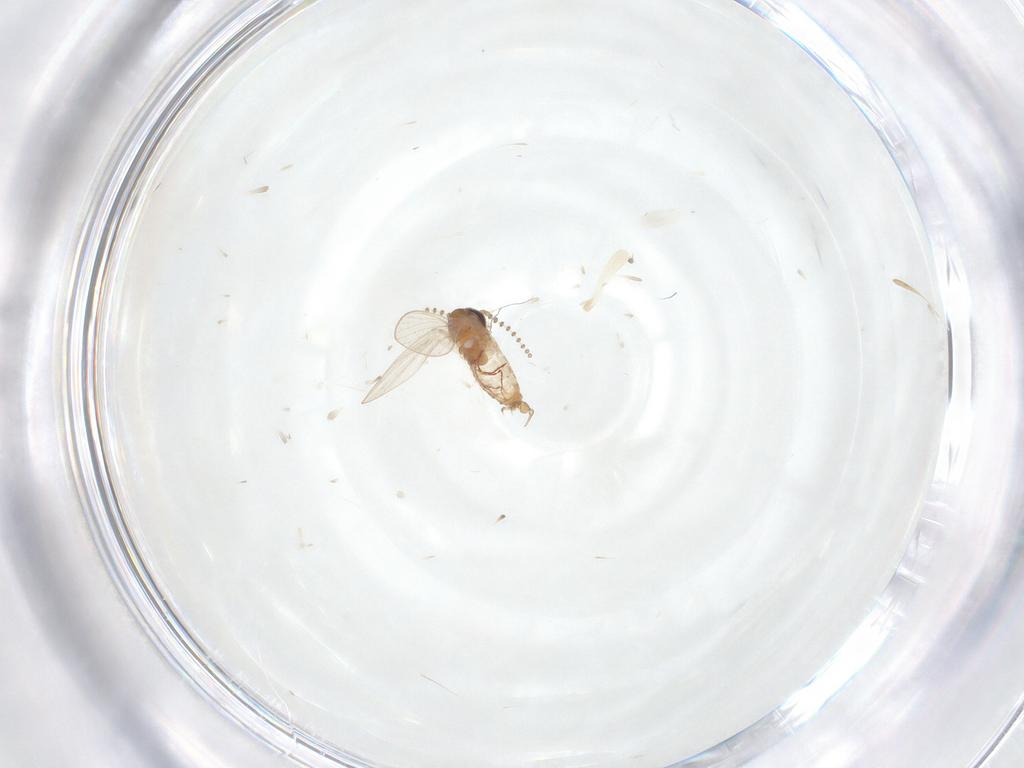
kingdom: Animalia
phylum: Arthropoda
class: Insecta
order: Diptera
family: Psychodidae
